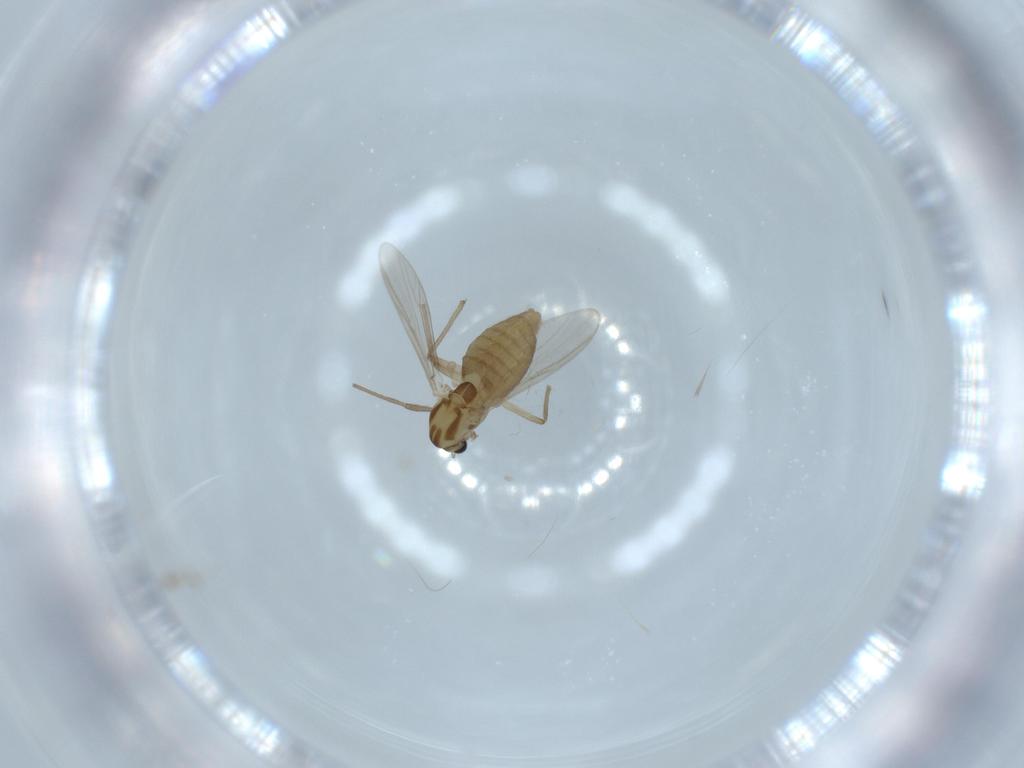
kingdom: Animalia
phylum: Arthropoda
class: Insecta
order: Diptera
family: Chironomidae
